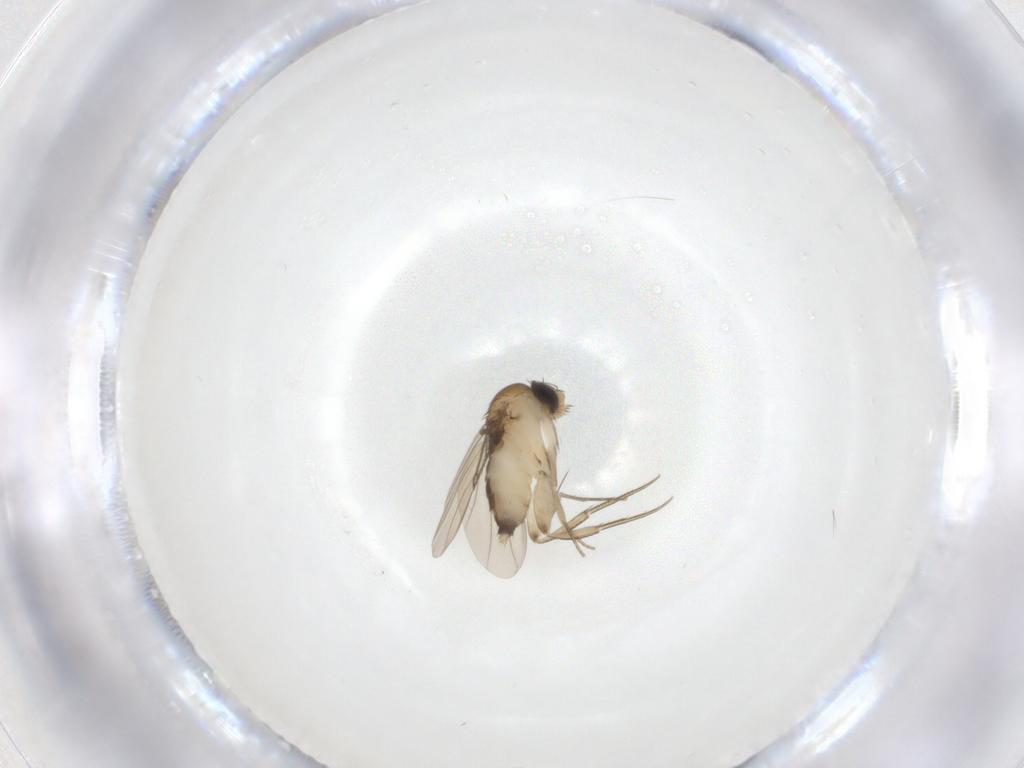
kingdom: Animalia
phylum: Arthropoda
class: Insecta
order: Diptera
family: Phoridae
